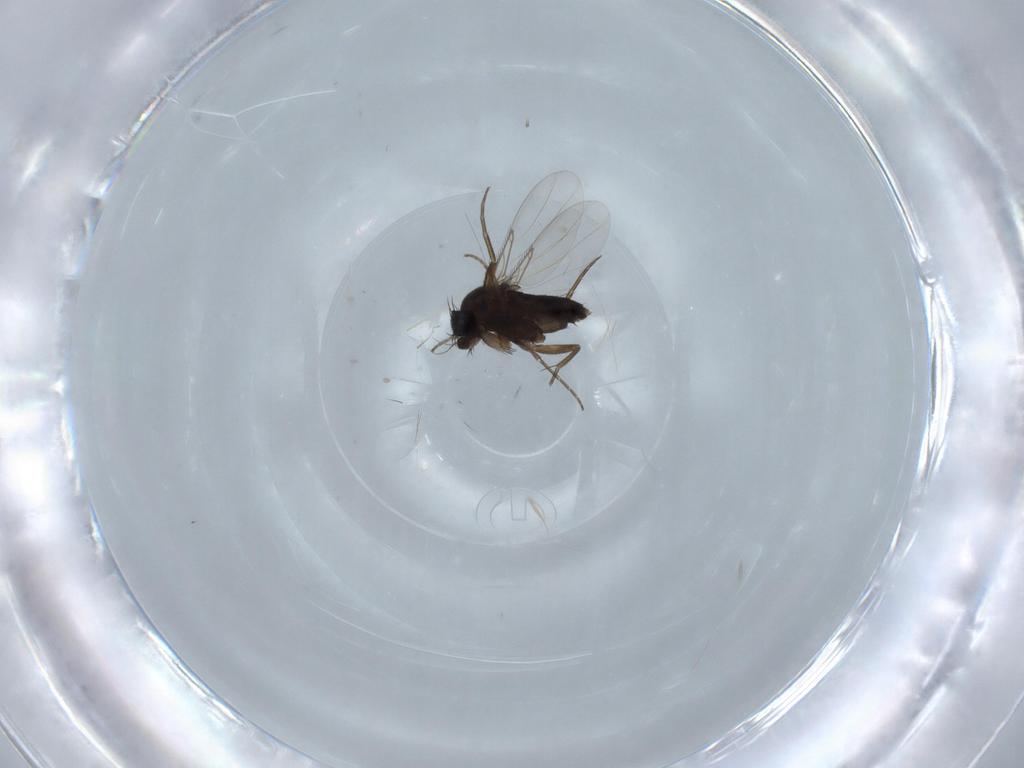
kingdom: Animalia
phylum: Arthropoda
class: Insecta
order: Diptera
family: Phoridae
